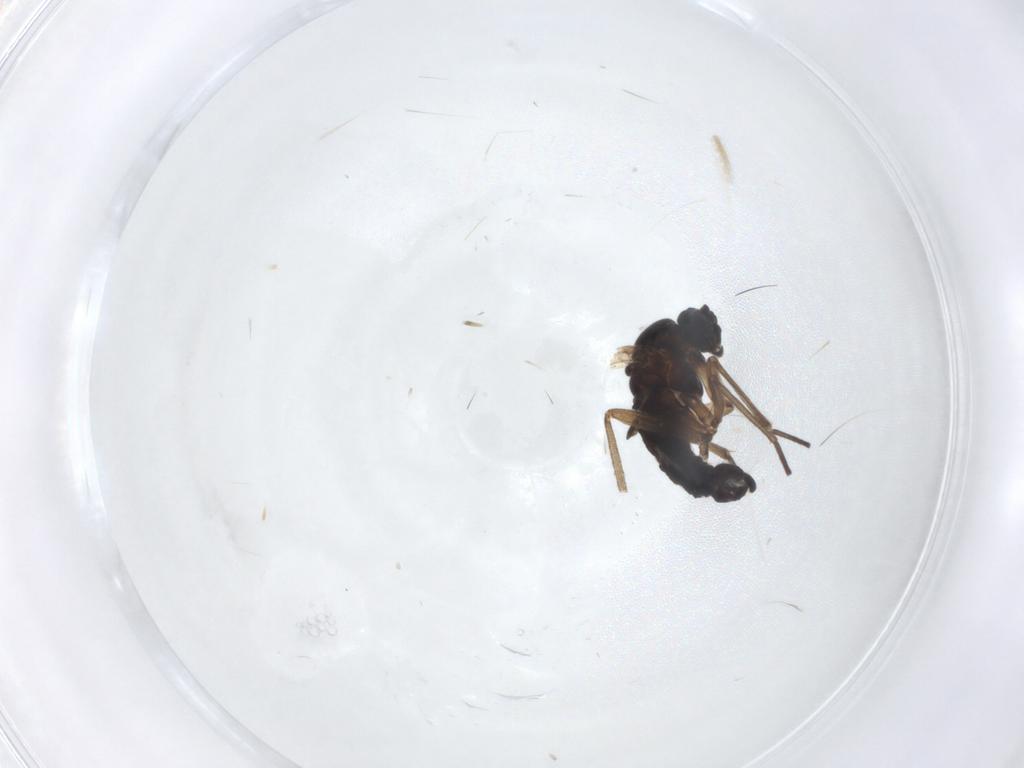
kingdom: Animalia
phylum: Arthropoda
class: Insecta
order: Diptera
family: Sciaridae
